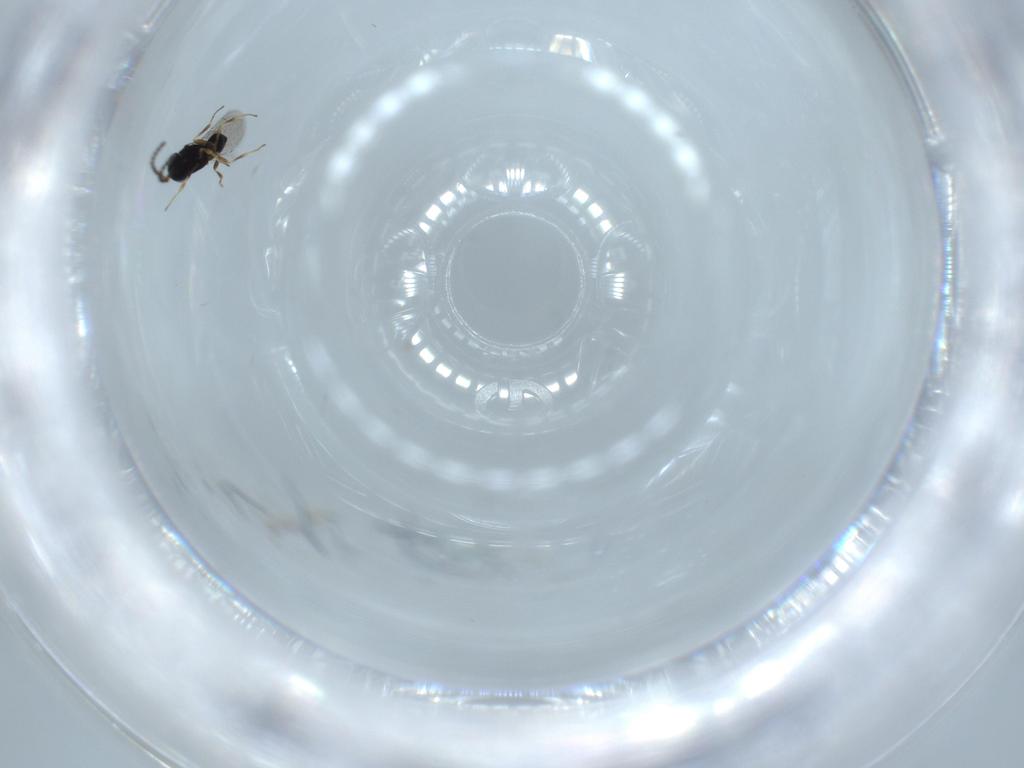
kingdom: Animalia
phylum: Arthropoda
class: Insecta
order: Hymenoptera
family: Scelionidae
